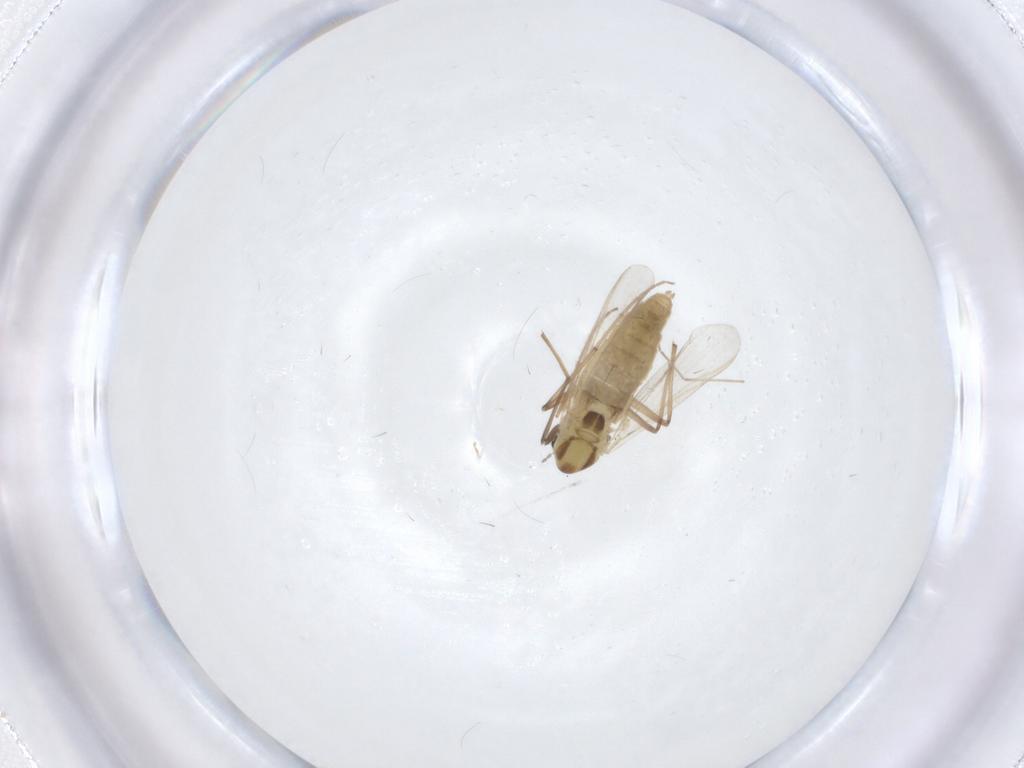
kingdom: Animalia
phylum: Arthropoda
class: Insecta
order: Diptera
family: Chironomidae
